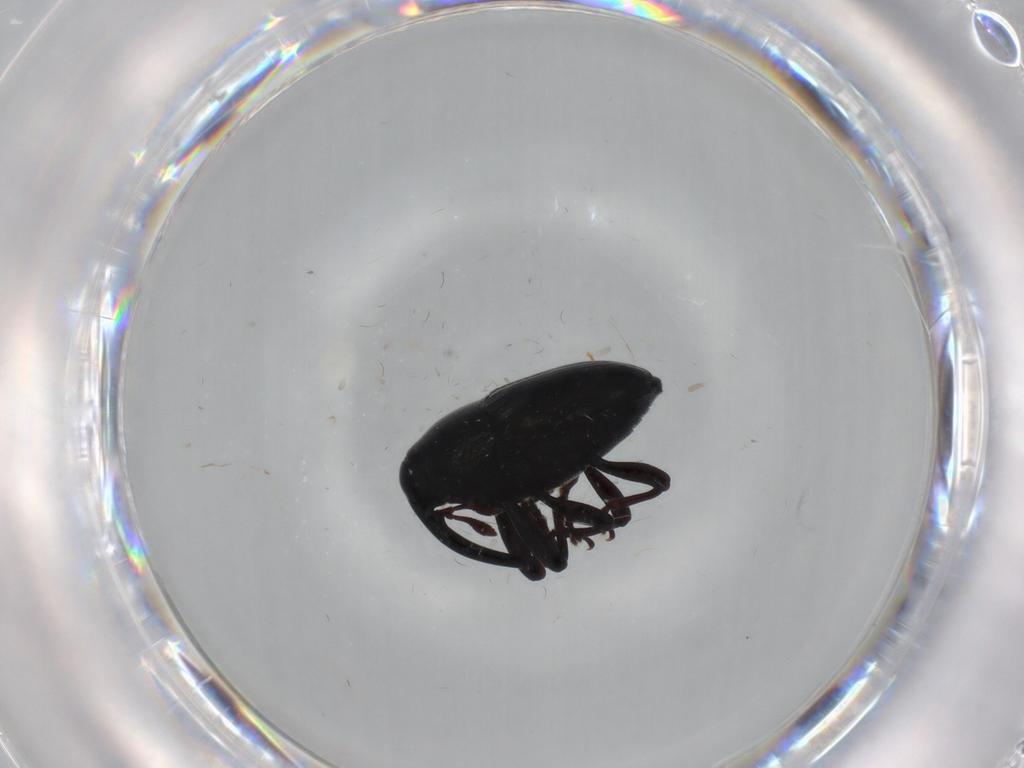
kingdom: Animalia
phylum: Arthropoda
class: Insecta
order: Coleoptera
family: Curculionidae
